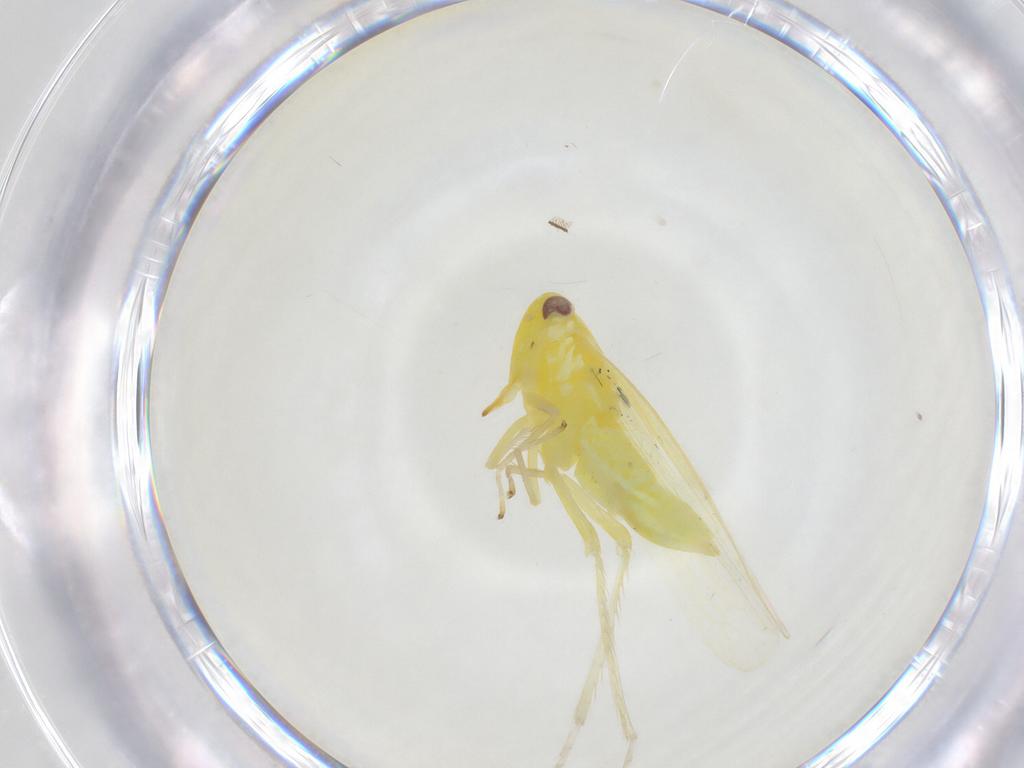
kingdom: Animalia
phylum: Arthropoda
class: Insecta
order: Hemiptera
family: Cicadellidae
